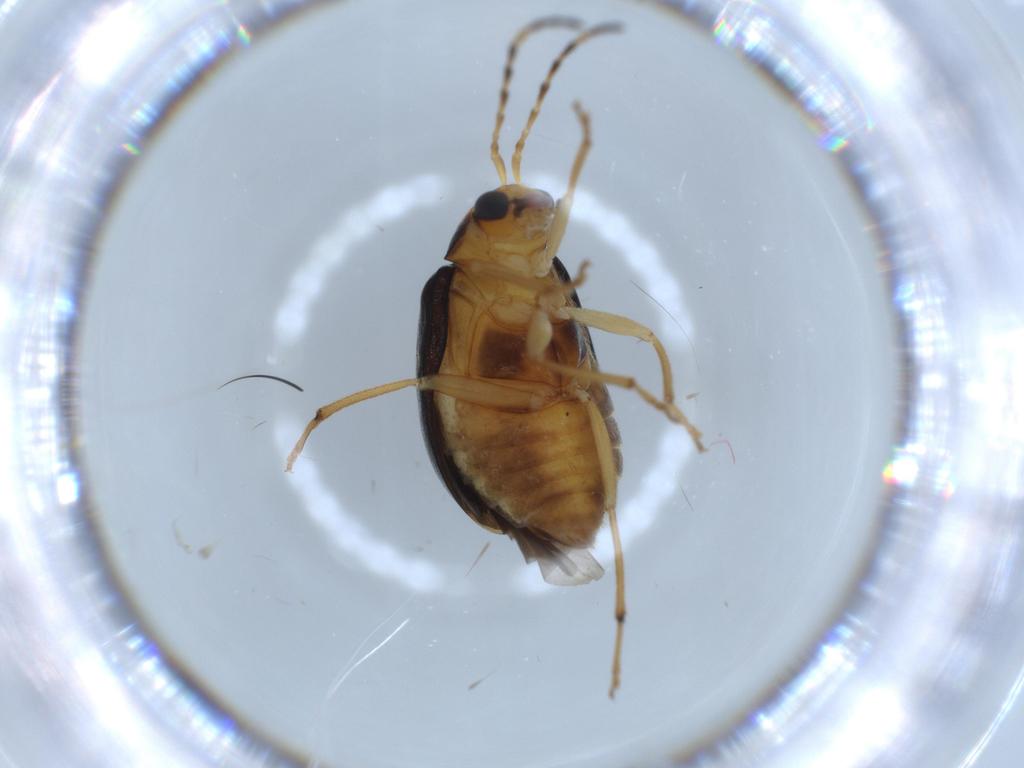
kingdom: Animalia
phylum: Arthropoda
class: Insecta
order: Coleoptera
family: Chrysomelidae
